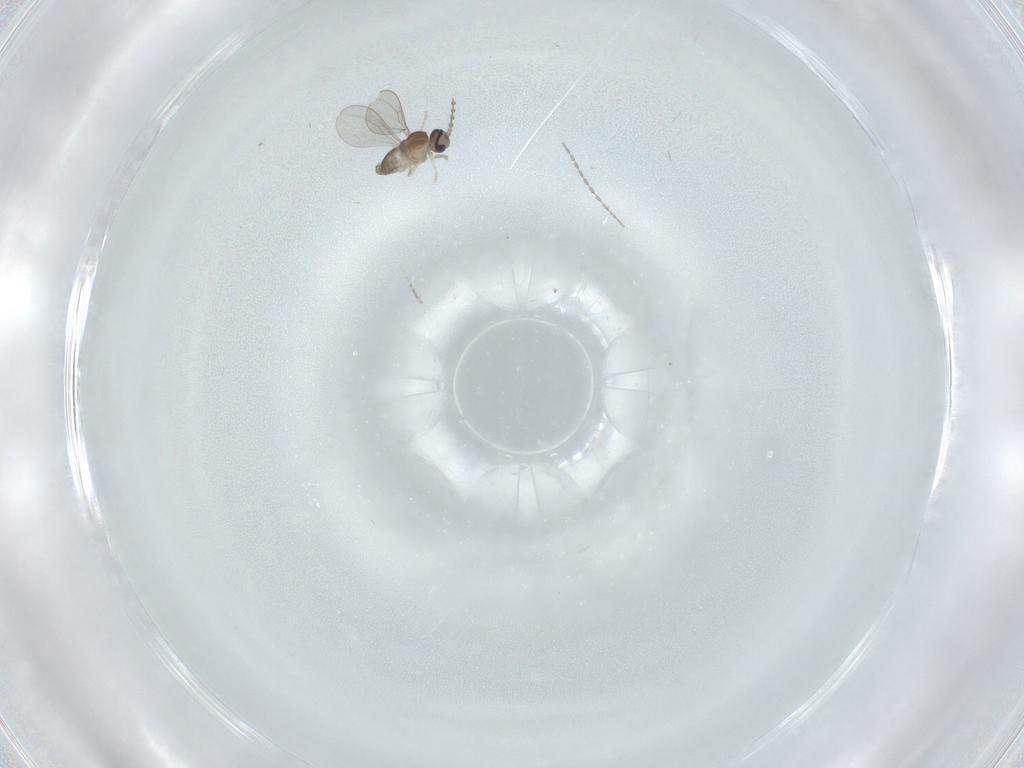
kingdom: Animalia
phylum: Arthropoda
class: Insecta
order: Diptera
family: Cecidomyiidae
